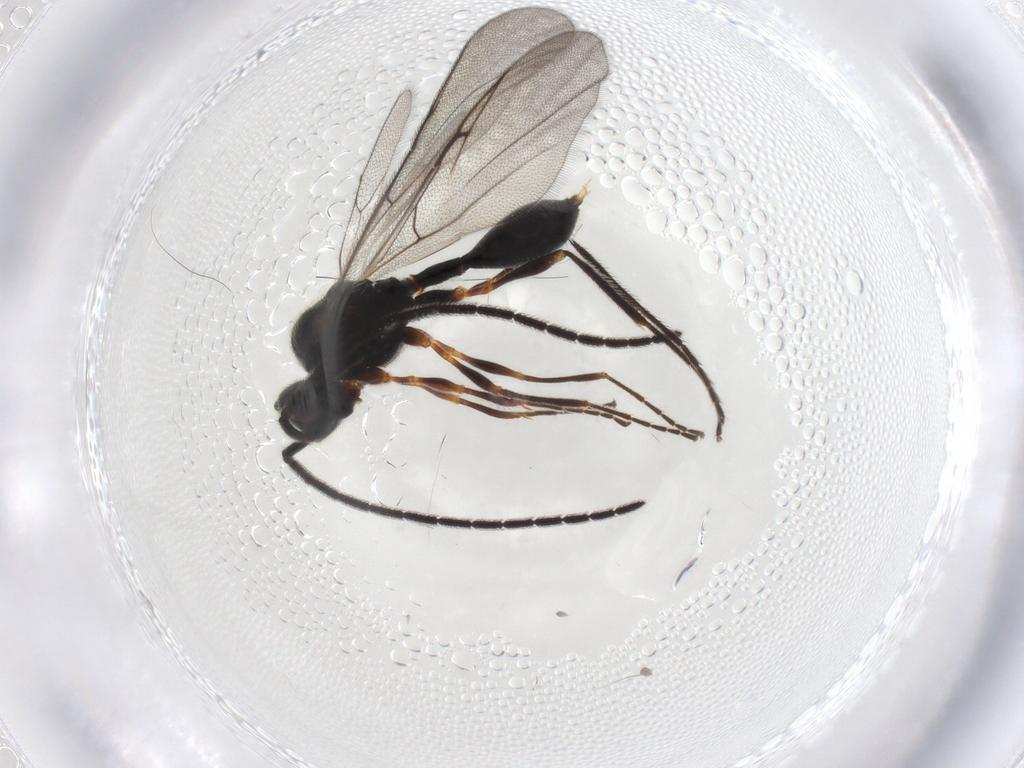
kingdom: Animalia
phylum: Arthropoda
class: Insecta
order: Hymenoptera
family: Diapriidae
